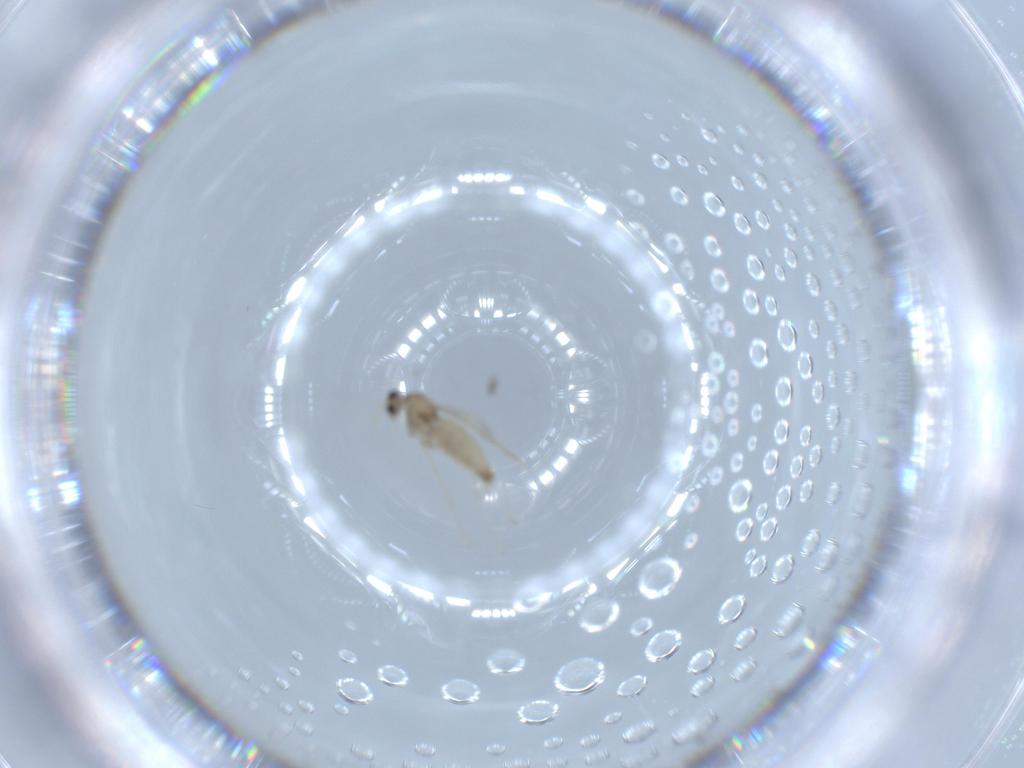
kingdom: Animalia
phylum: Arthropoda
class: Insecta
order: Diptera
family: Cecidomyiidae
